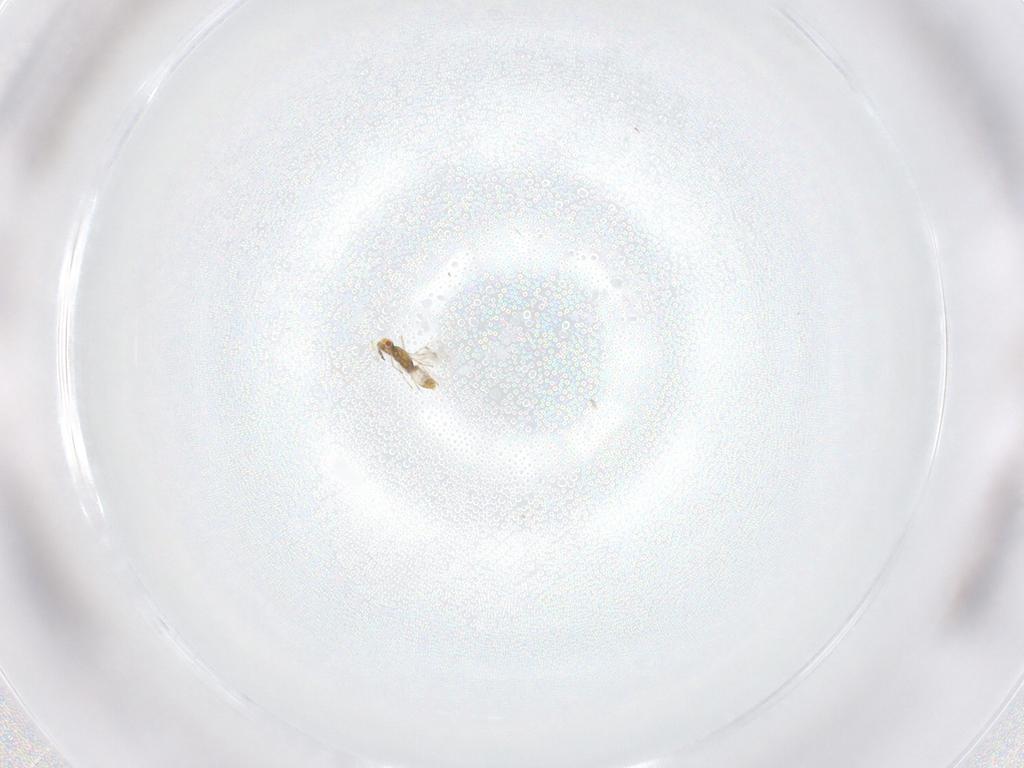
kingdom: Animalia
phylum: Arthropoda
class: Insecta
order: Hymenoptera
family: Eulophidae
